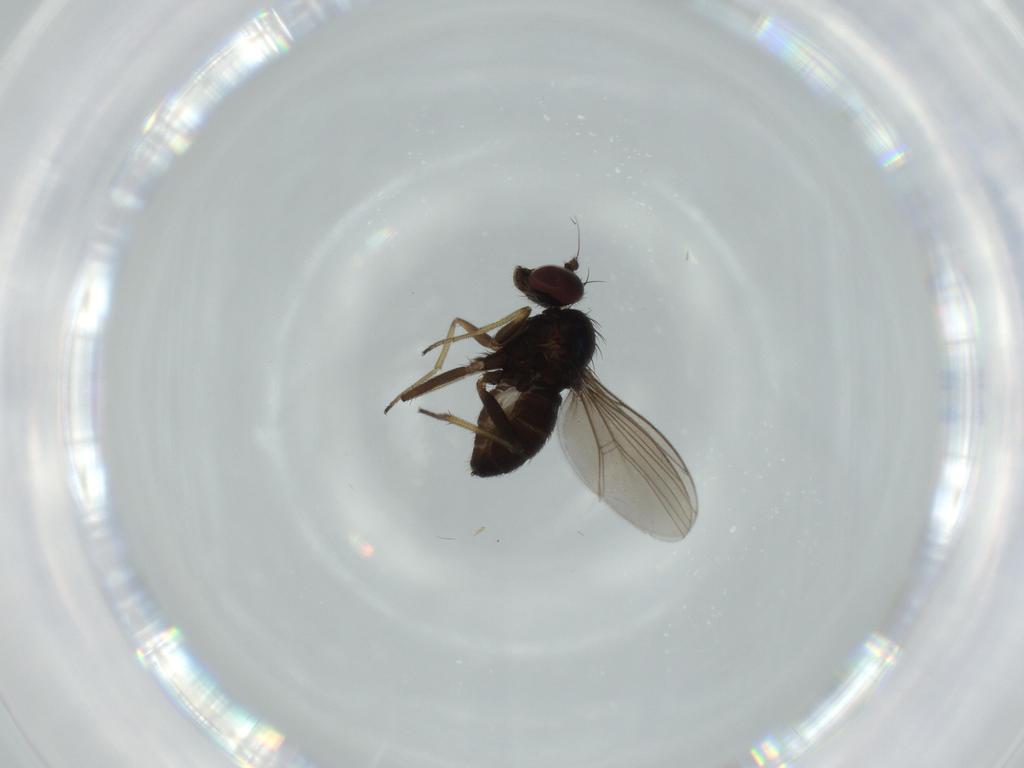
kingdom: Animalia
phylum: Arthropoda
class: Insecta
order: Diptera
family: Dolichopodidae
